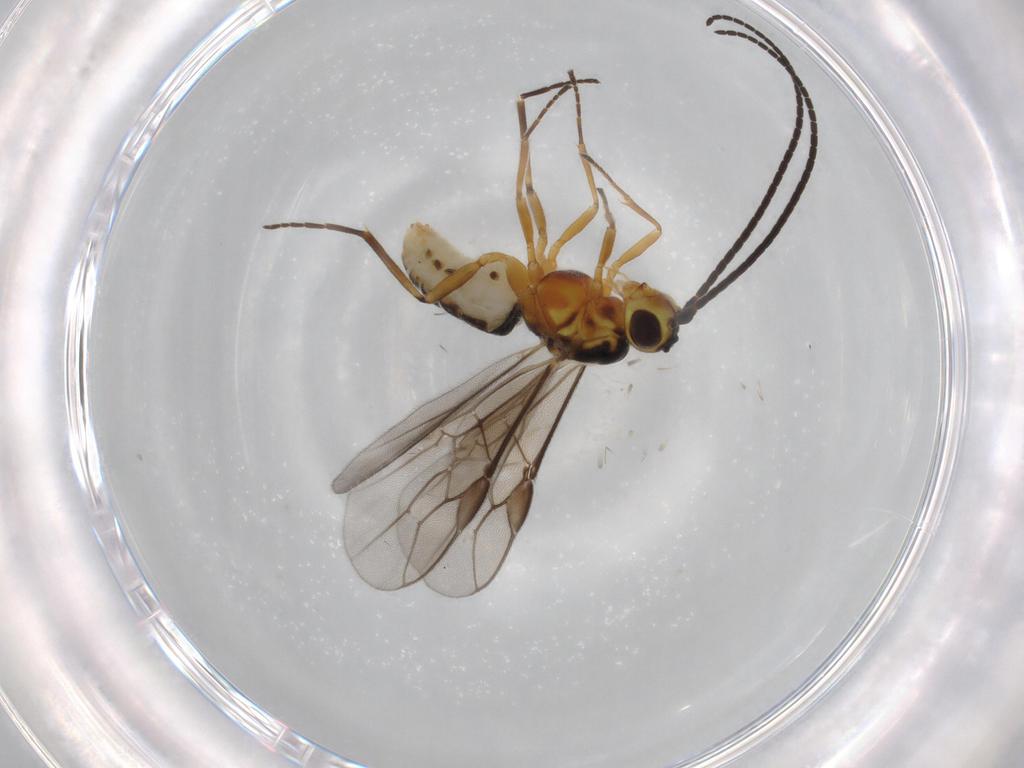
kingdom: Animalia
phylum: Arthropoda
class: Insecta
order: Hymenoptera
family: Braconidae
